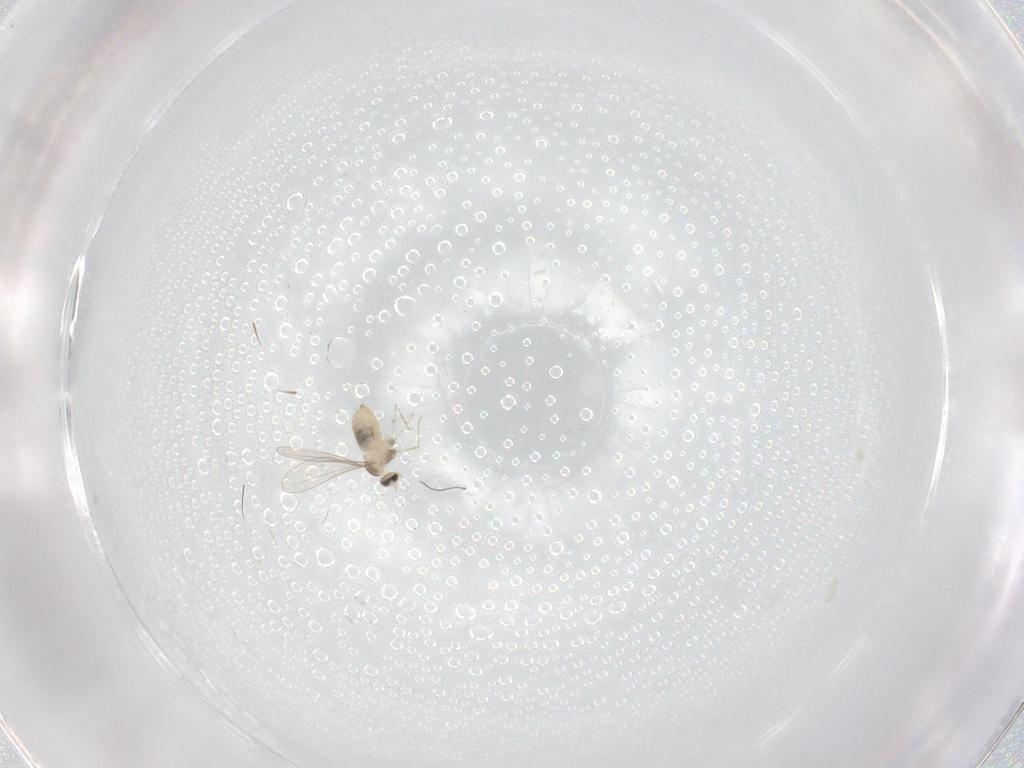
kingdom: Animalia
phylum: Arthropoda
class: Insecta
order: Diptera
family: Cecidomyiidae
